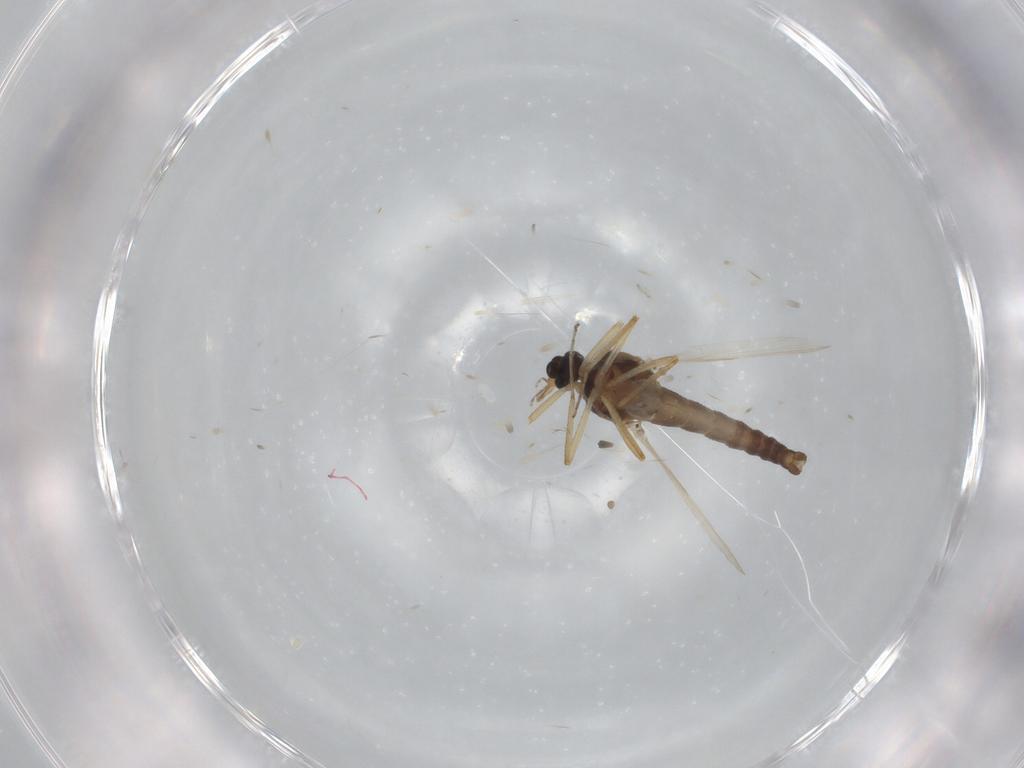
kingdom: Animalia
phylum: Arthropoda
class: Insecta
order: Diptera
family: Ceratopogonidae
